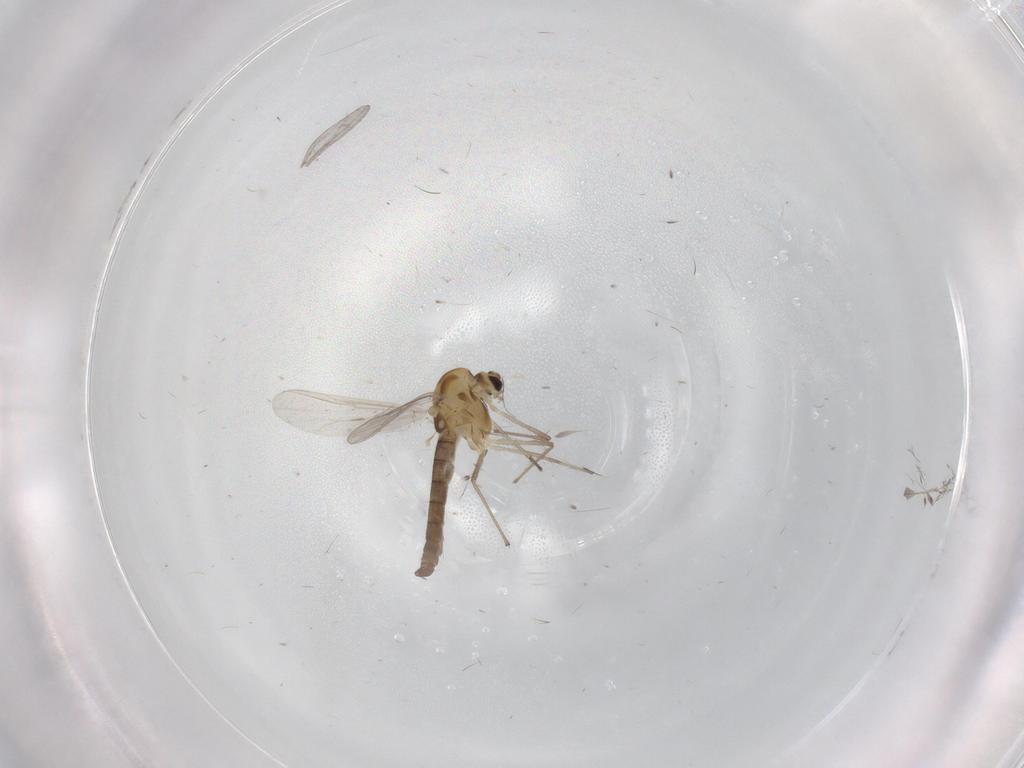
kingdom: Animalia
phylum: Arthropoda
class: Insecta
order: Diptera
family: Chironomidae
